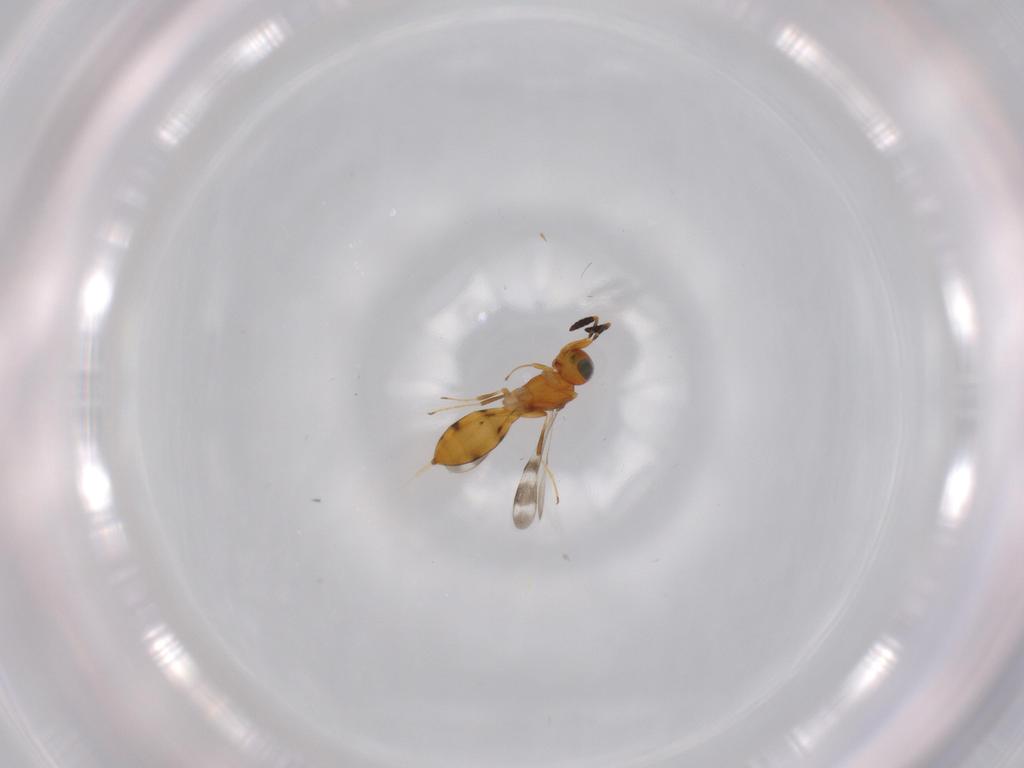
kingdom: Animalia
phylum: Arthropoda
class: Insecta
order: Hymenoptera
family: Scelionidae
